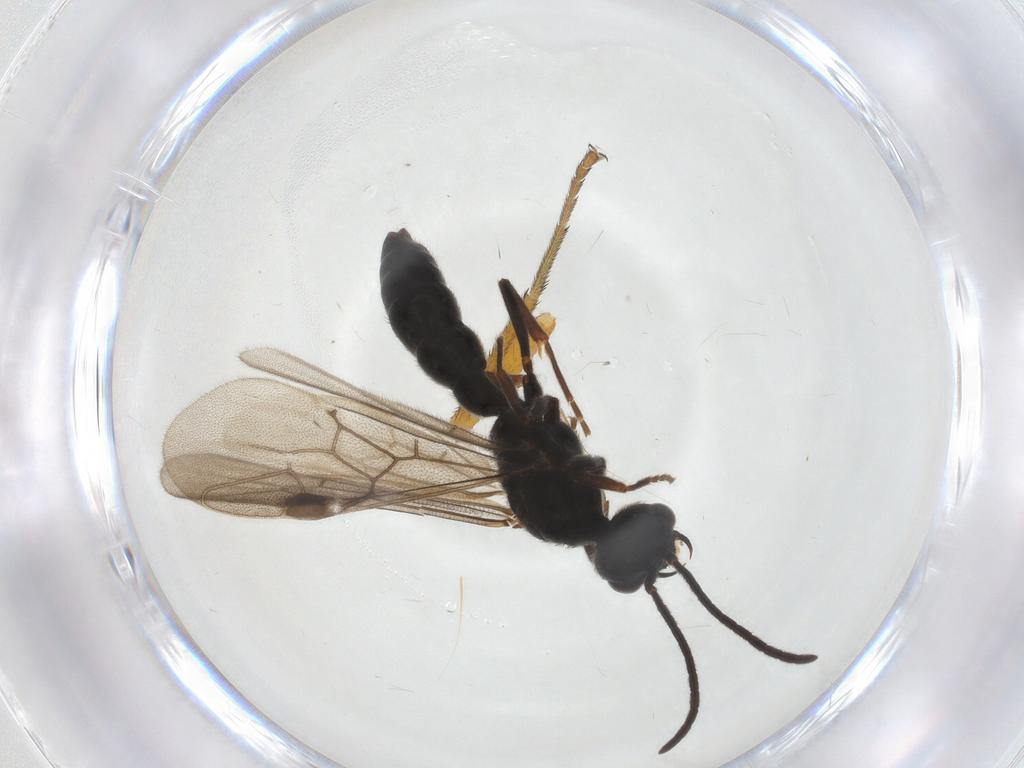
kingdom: Animalia
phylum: Arthropoda
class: Insecta
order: Hymenoptera
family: Formicidae
